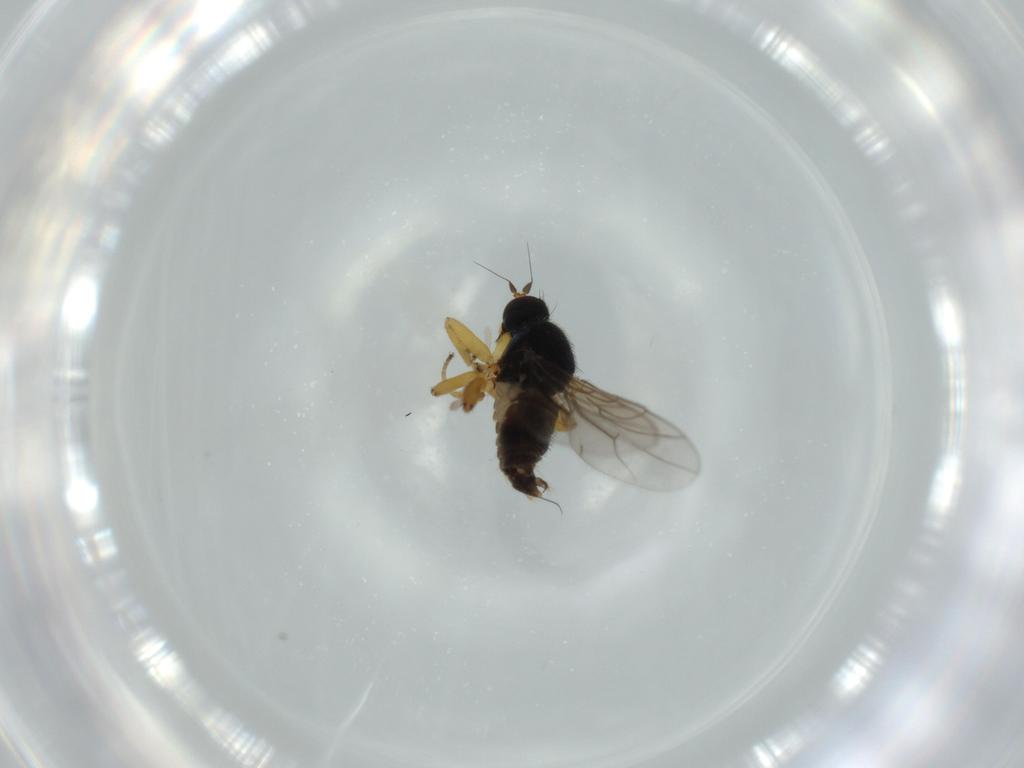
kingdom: Animalia
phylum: Arthropoda
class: Insecta
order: Diptera
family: Hybotidae
